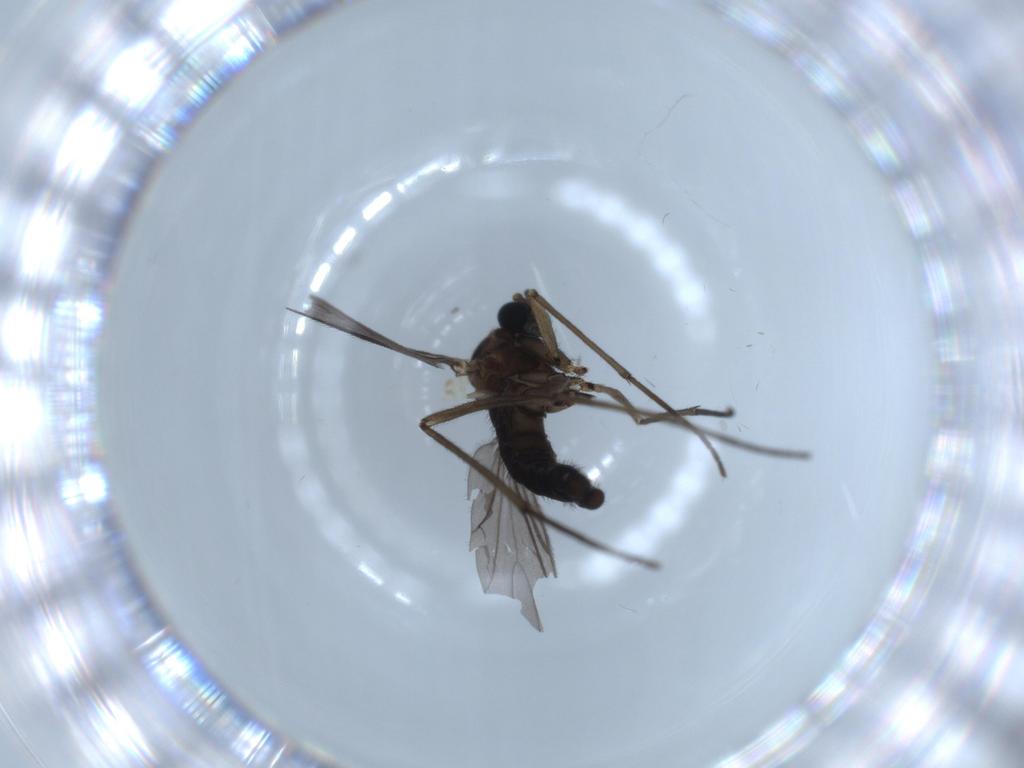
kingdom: Animalia
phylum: Arthropoda
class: Insecta
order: Diptera
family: Sciaridae
